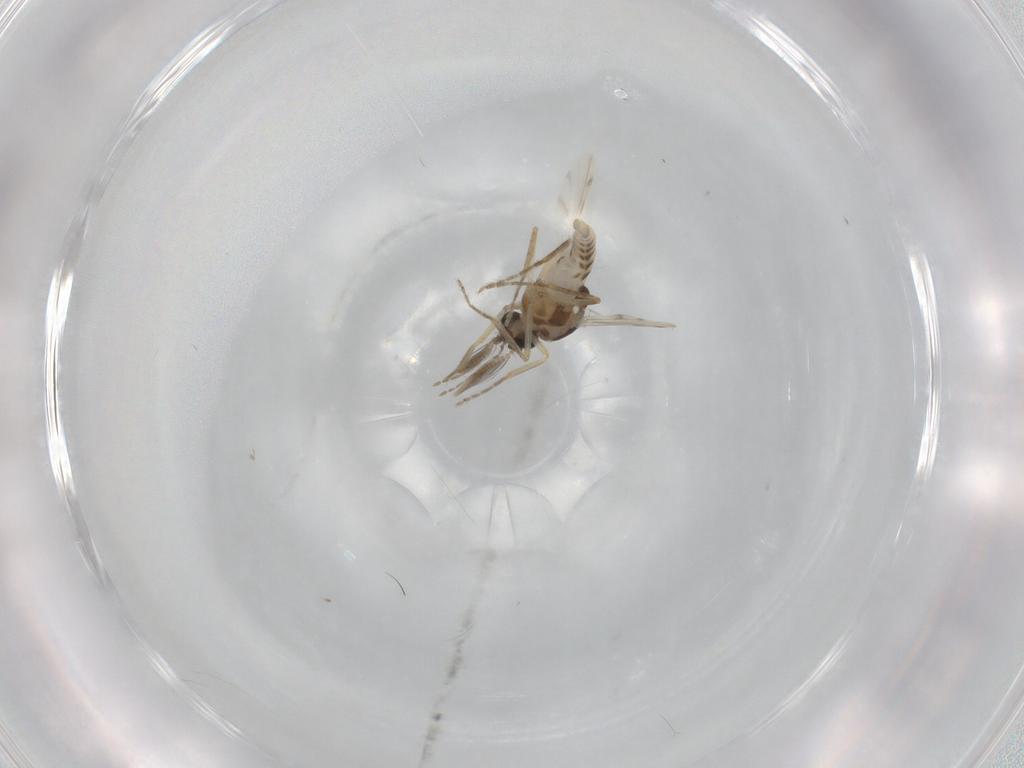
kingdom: Animalia
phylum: Arthropoda
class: Insecta
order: Diptera
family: Ceratopogonidae
